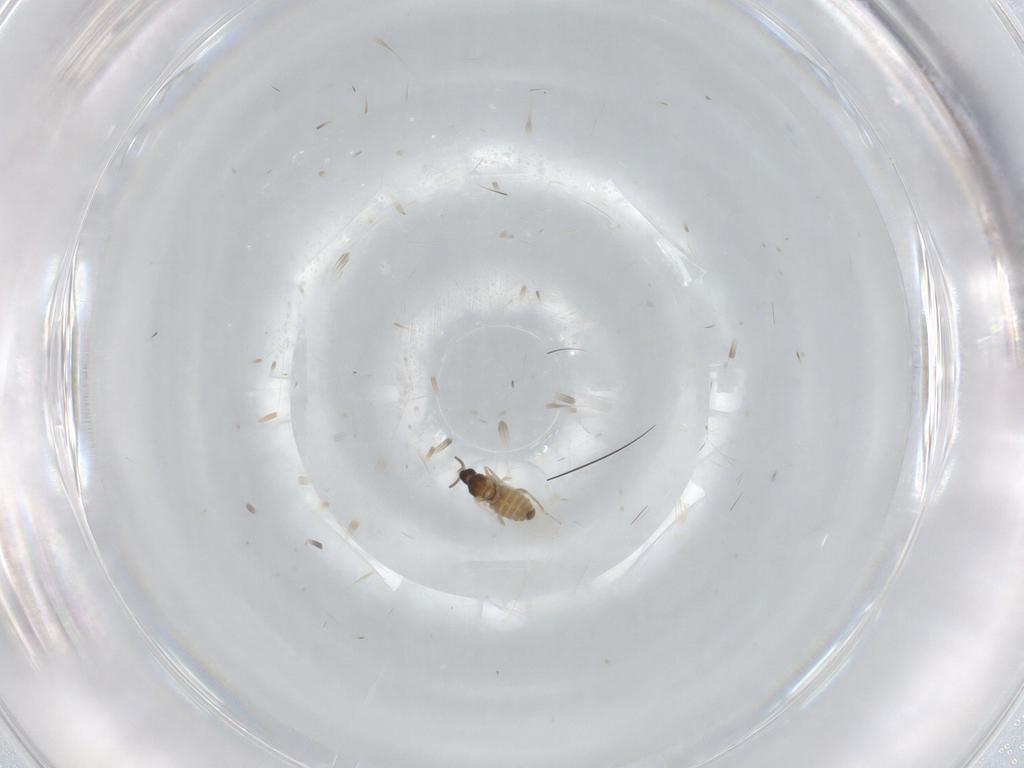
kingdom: Animalia
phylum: Arthropoda
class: Insecta
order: Diptera
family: Cecidomyiidae
